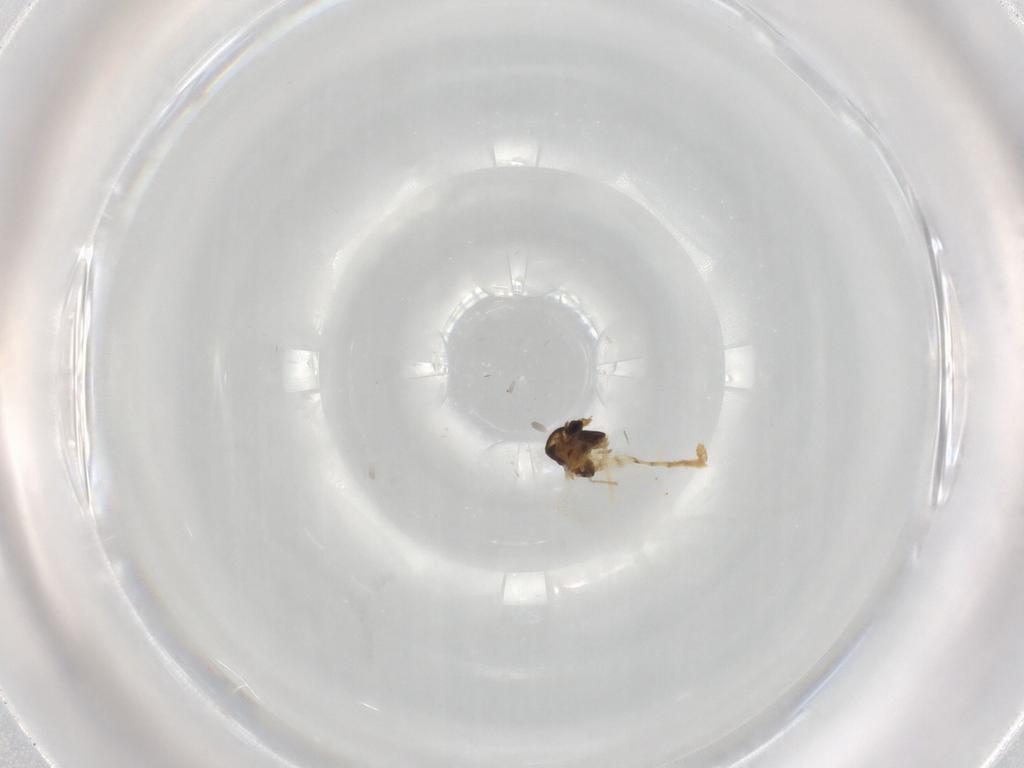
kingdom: Animalia
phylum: Arthropoda
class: Insecta
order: Diptera
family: Chironomidae
